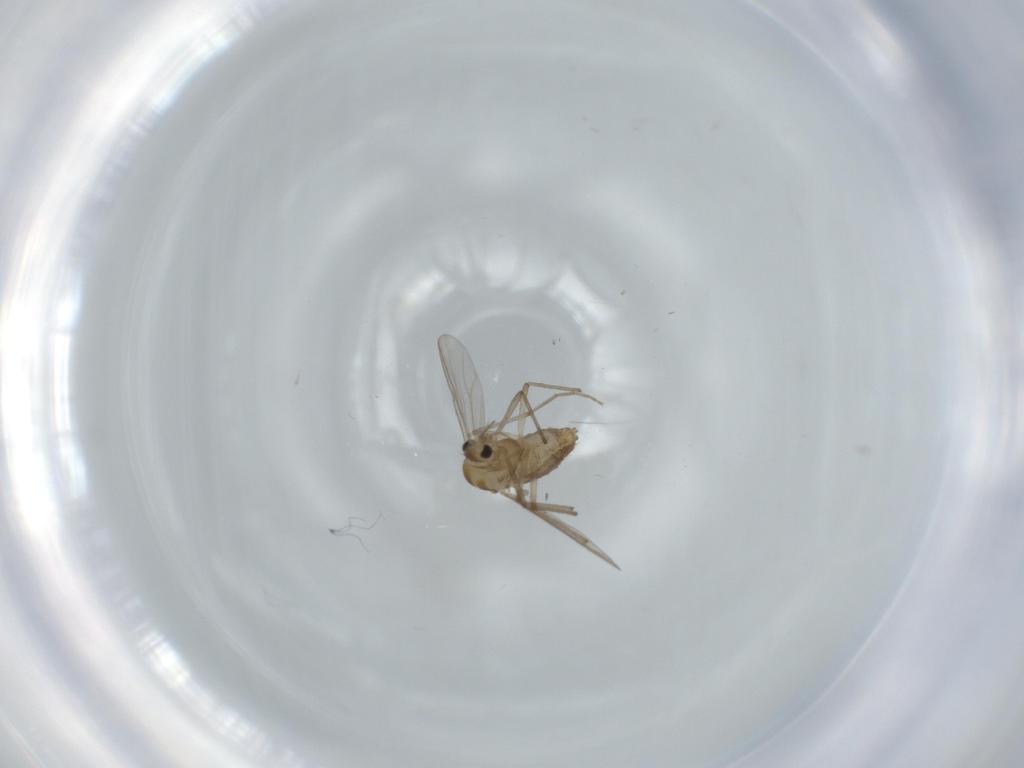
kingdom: Animalia
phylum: Arthropoda
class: Insecta
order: Diptera
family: Chironomidae
